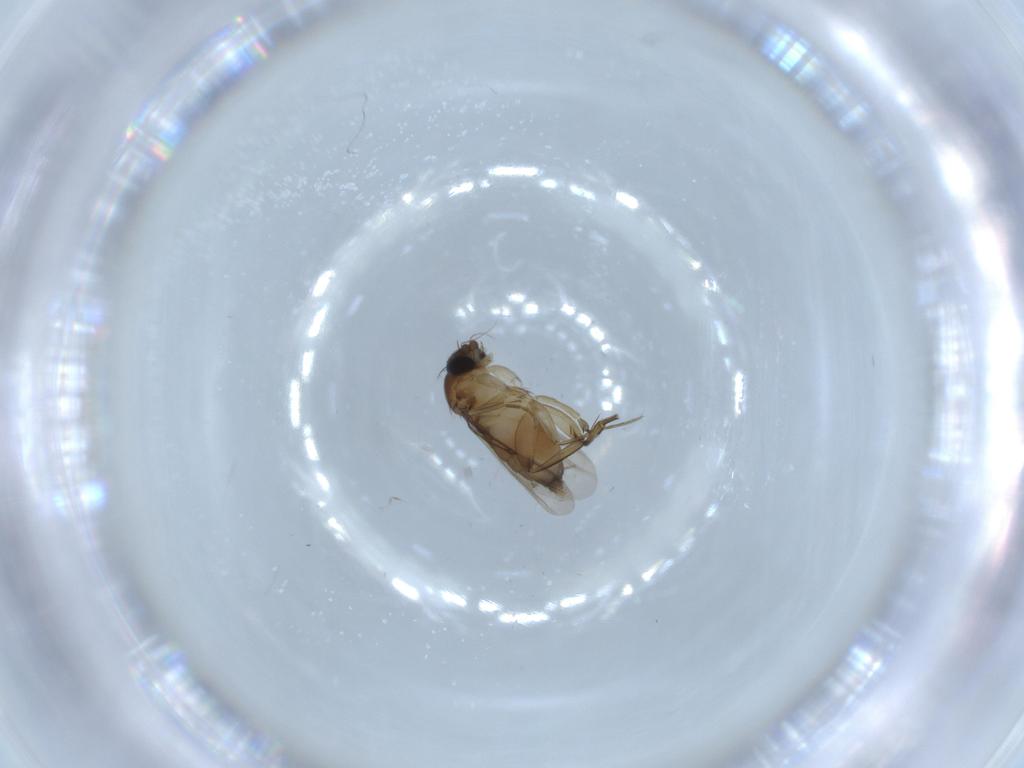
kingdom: Animalia
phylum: Arthropoda
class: Insecta
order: Diptera
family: Phoridae
